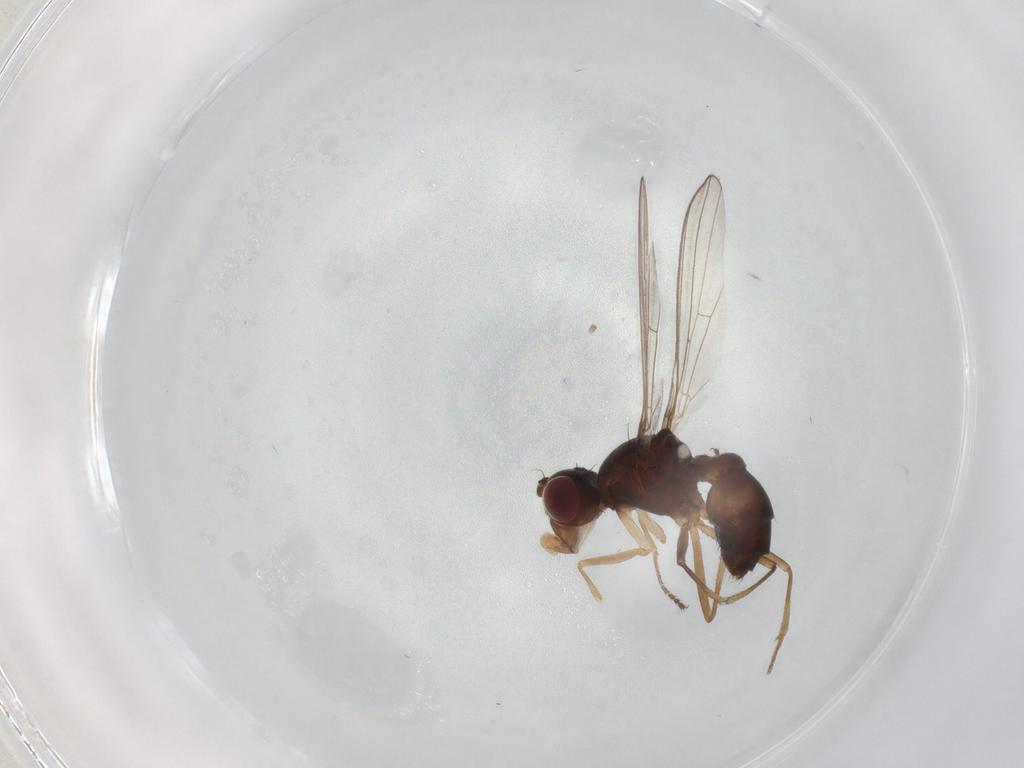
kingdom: Animalia
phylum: Arthropoda
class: Insecta
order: Diptera
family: Sepsidae
